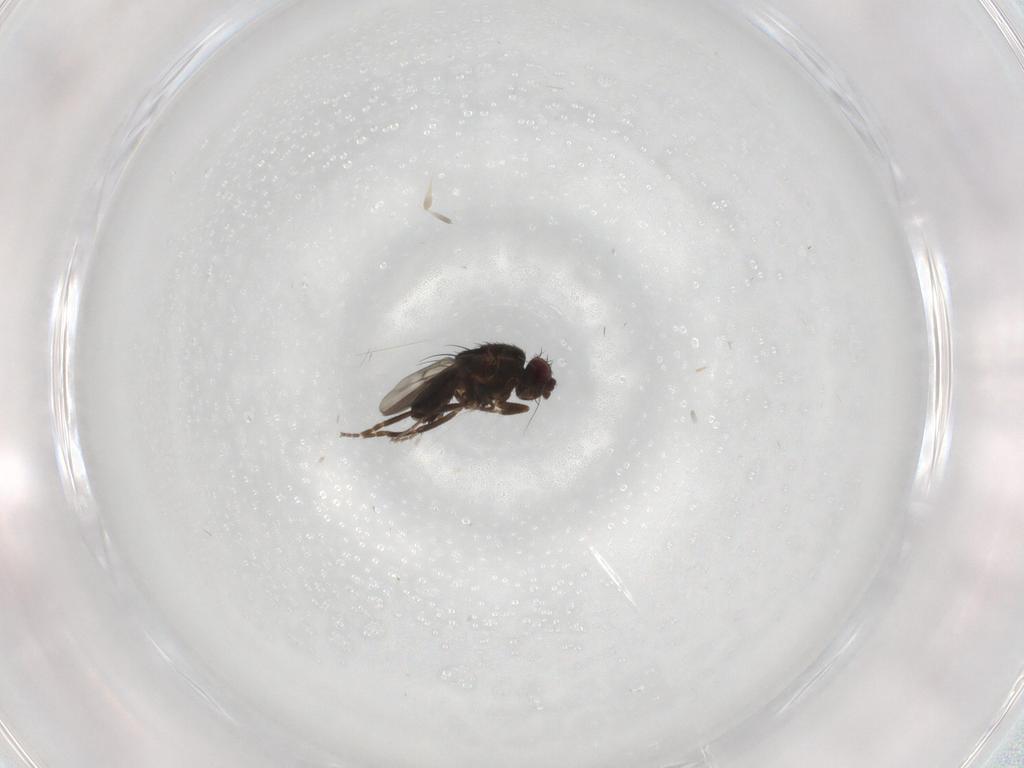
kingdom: Animalia
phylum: Arthropoda
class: Insecta
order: Diptera
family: Sphaeroceridae
